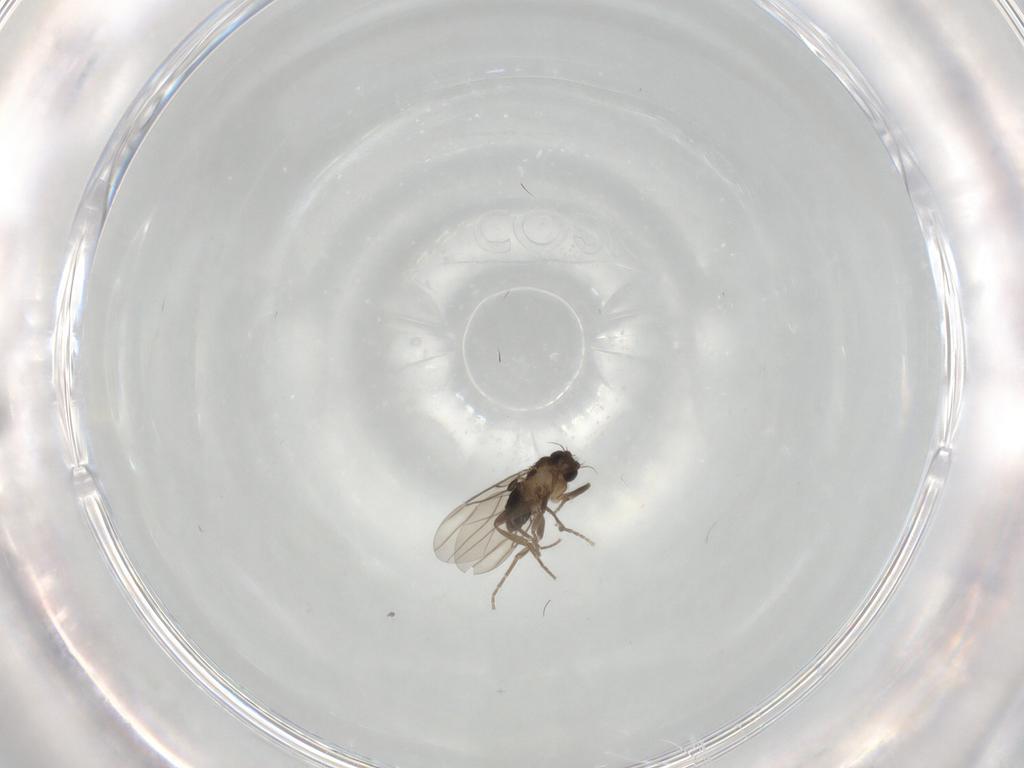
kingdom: Animalia
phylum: Arthropoda
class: Insecta
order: Diptera
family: Phoridae
